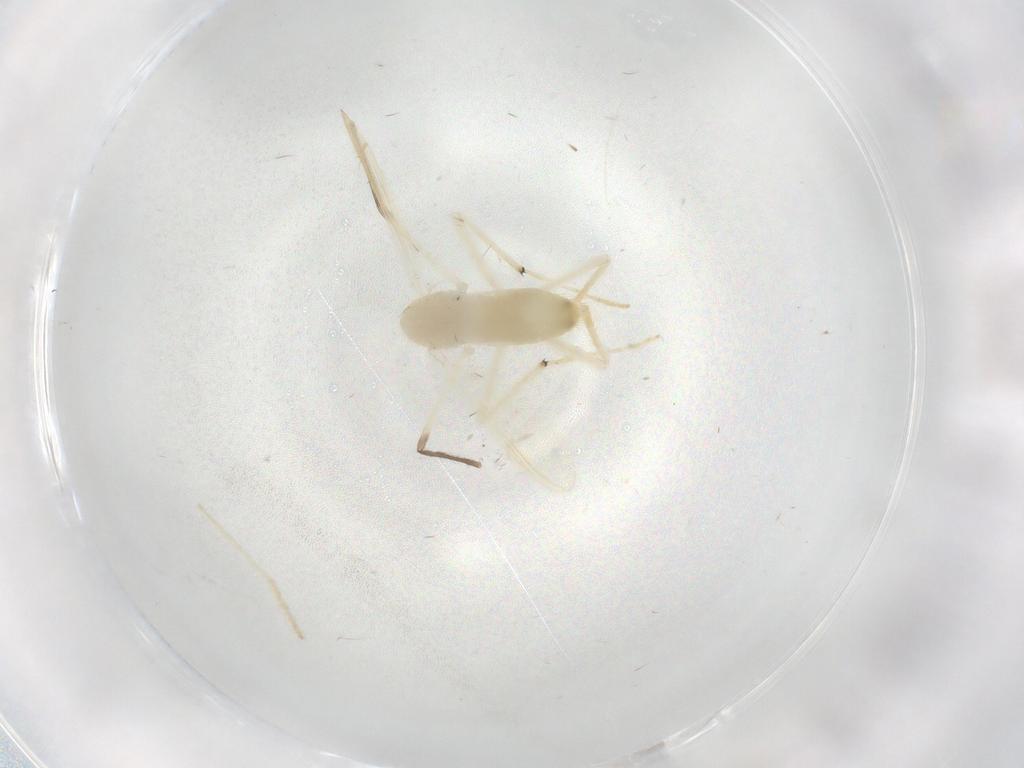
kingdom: Animalia
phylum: Arthropoda
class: Insecta
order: Diptera
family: Chironomidae
